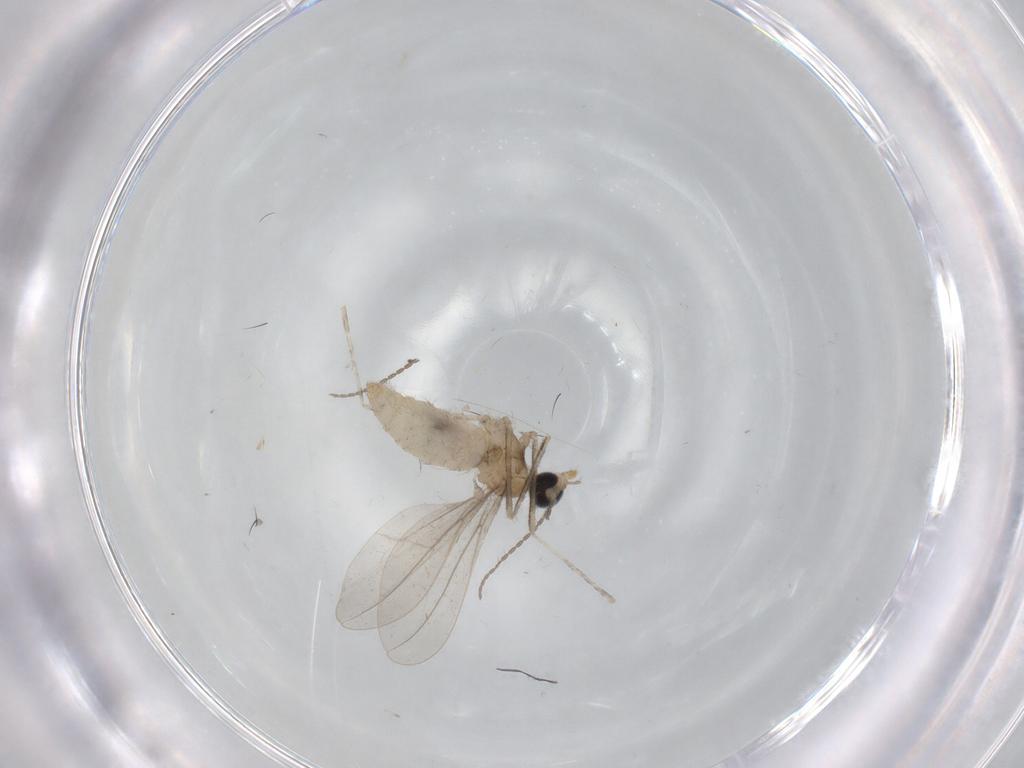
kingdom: Animalia
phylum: Arthropoda
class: Insecta
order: Diptera
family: Cecidomyiidae
